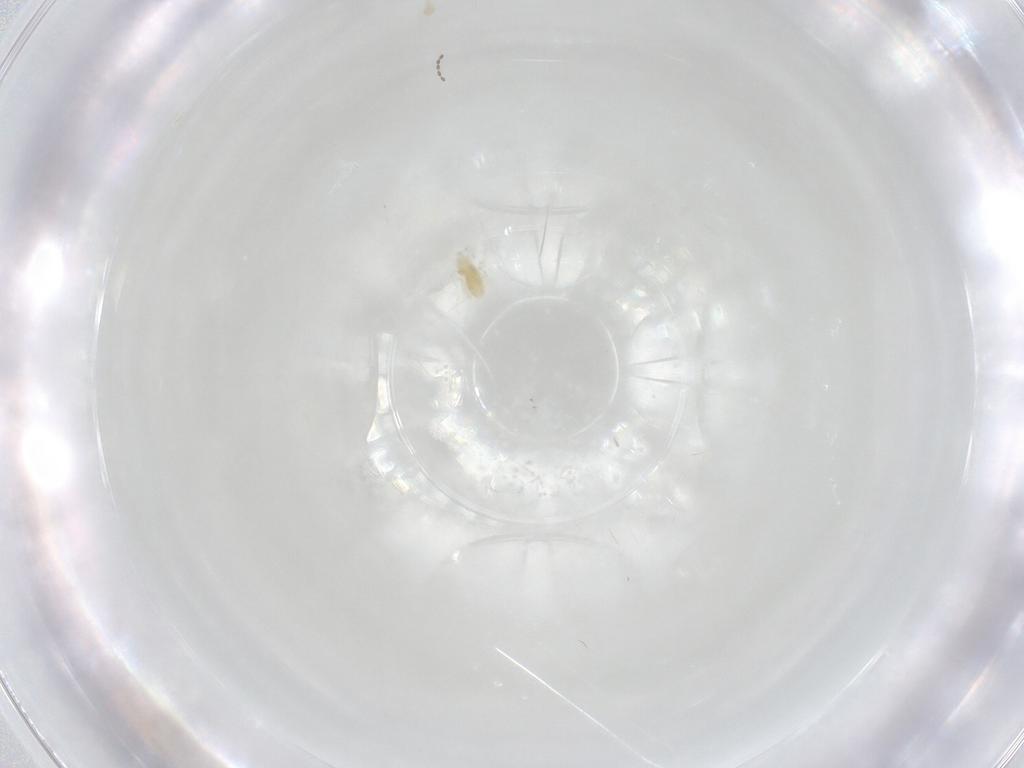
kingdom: Animalia
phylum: Arthropoda
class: Arachnida
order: Trombidiformes
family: Eupodidae
